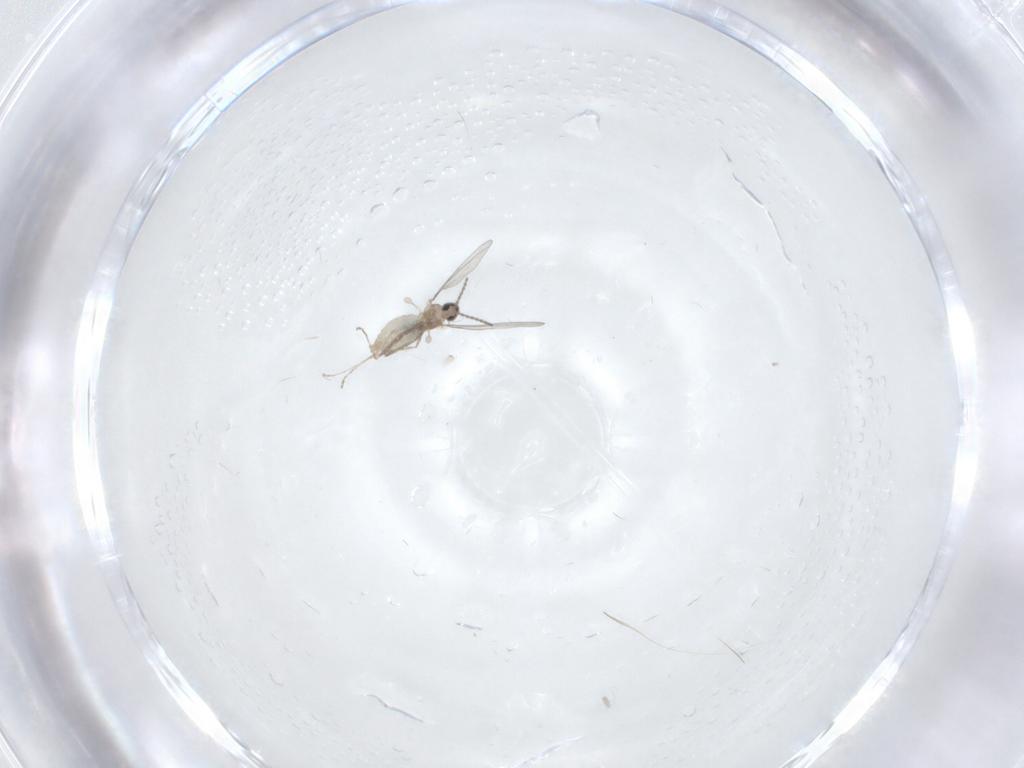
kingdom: Animalia
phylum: Arthropoda
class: Insecta
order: Diptera
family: Cecidomyiidae
